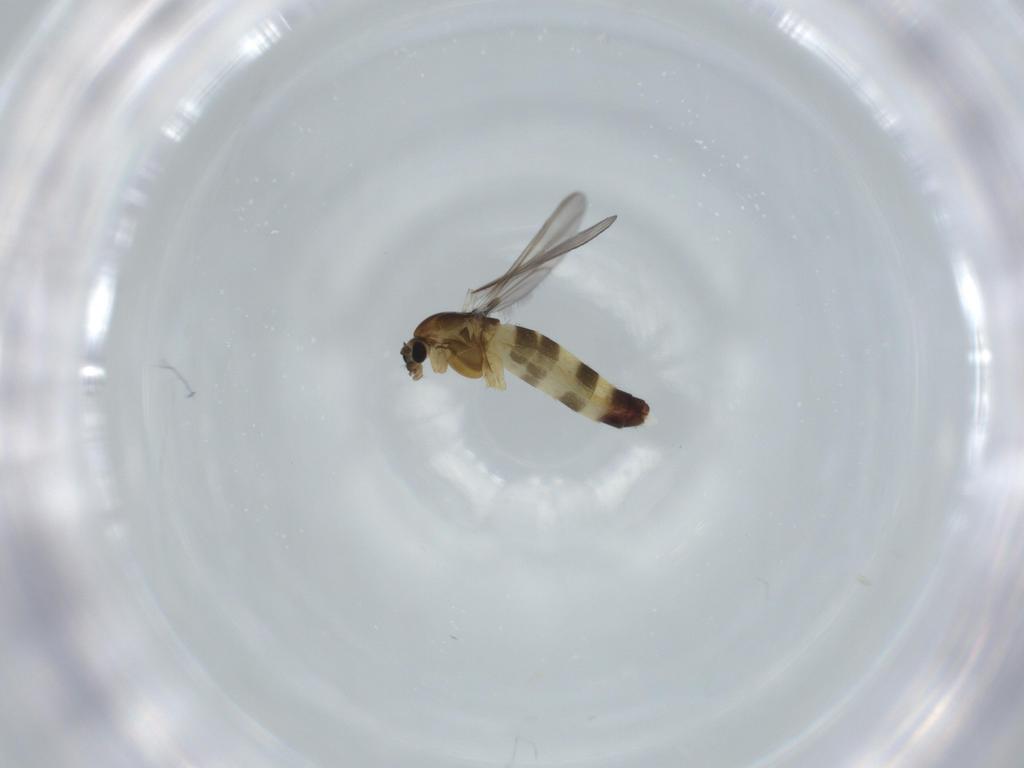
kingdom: Animalia
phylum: Arthropoda
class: Insecta
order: Diptera
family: Chironomidae
